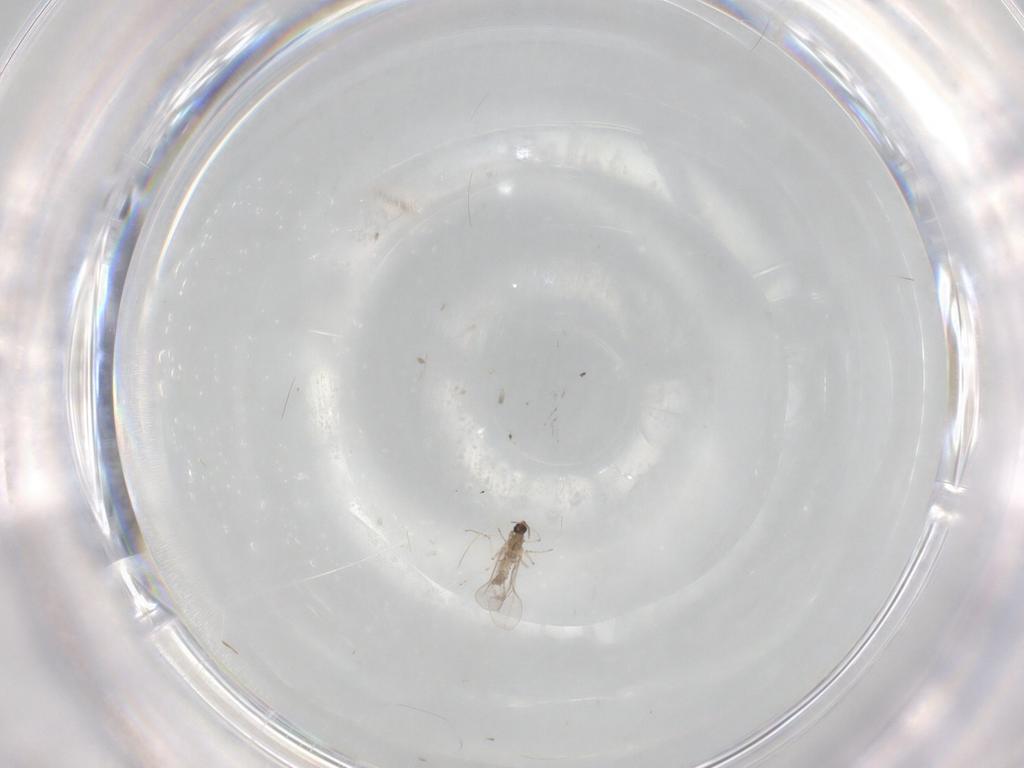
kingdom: Animalia
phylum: Arthropoda
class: Insecta
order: Diptera
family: Cecidomyiidae
